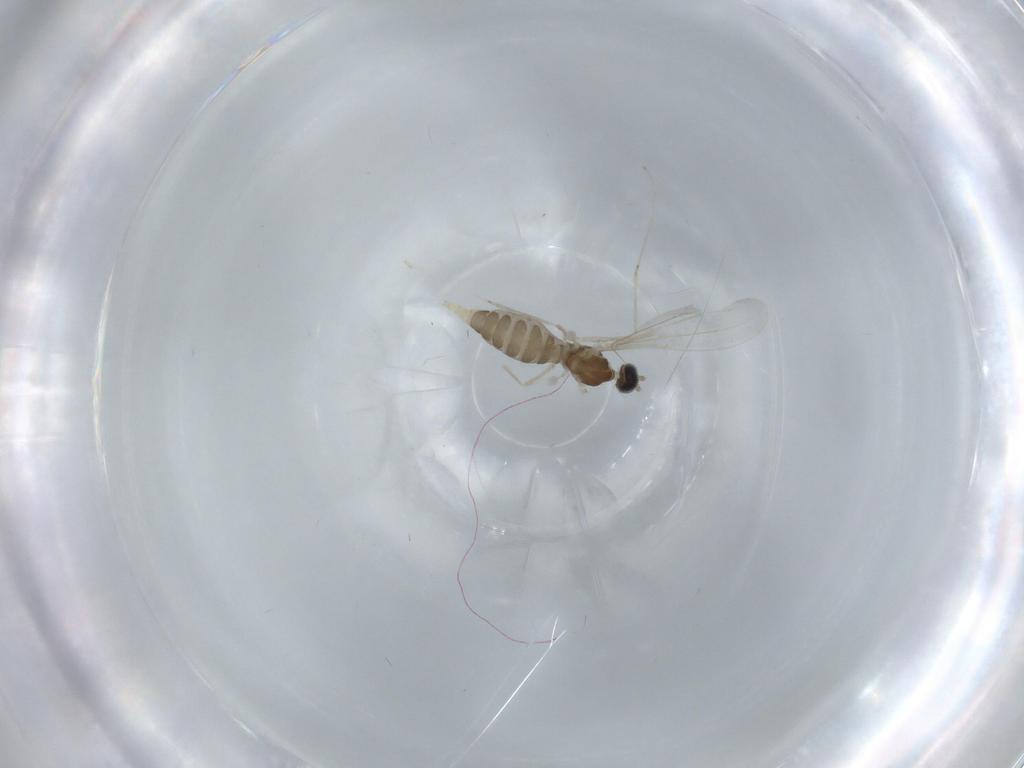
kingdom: Animalia
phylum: Arthropoda
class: Insecta
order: Diptera
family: Cecidomyiidae
